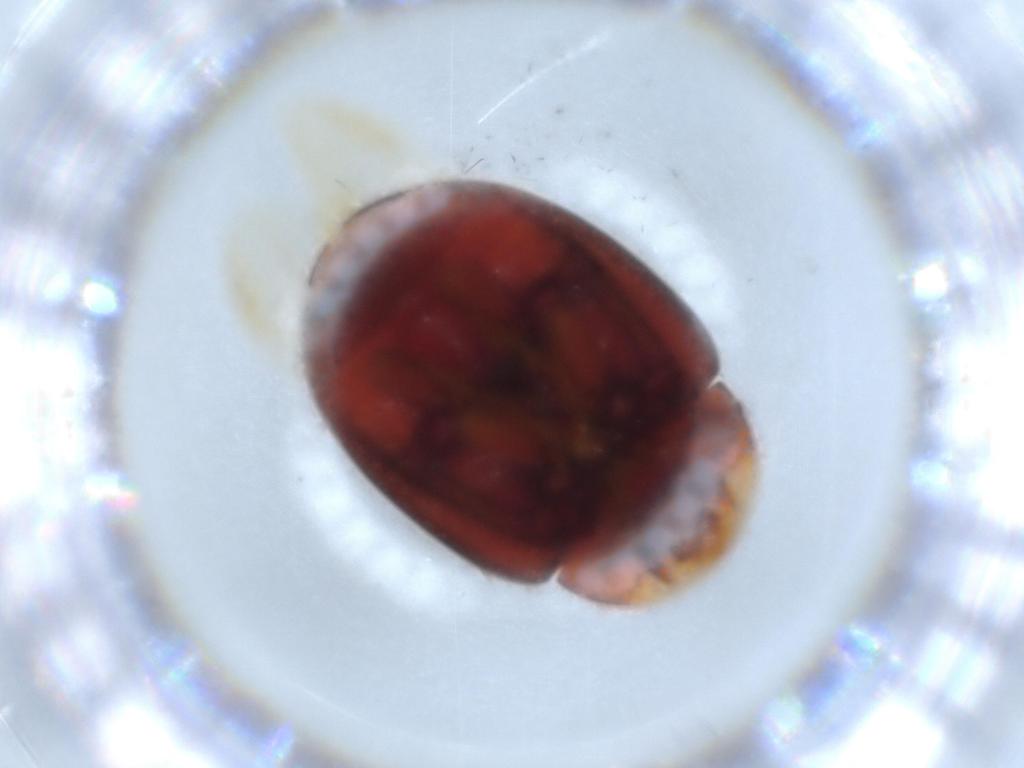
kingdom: Animalia
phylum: Arthropoda
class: Insecta
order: Coleoptera
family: Coccinellidae
